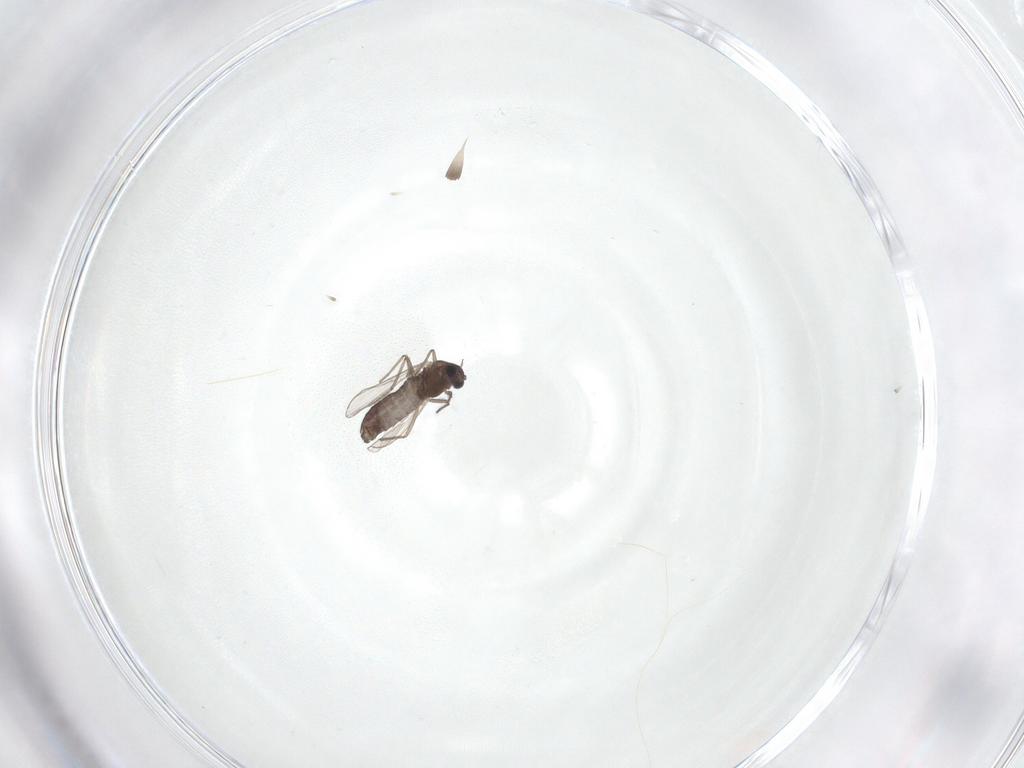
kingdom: Animalia
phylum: Arthropoda
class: Insecta
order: Diptera
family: Chironomidae
